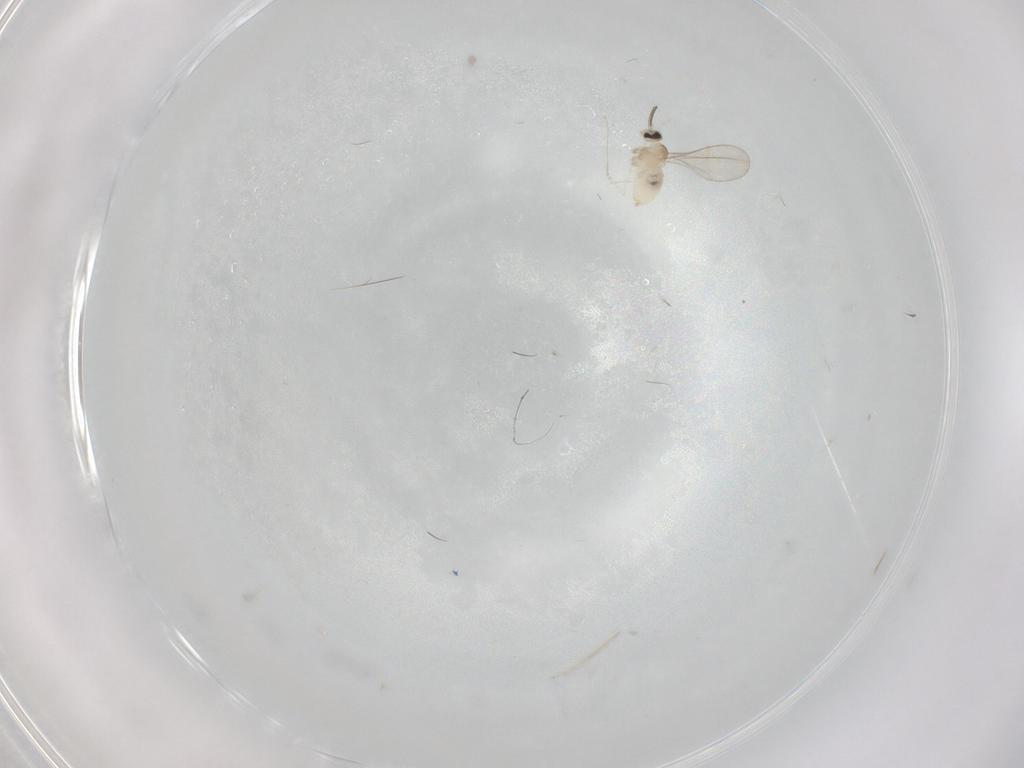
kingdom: Animalia
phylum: Arthropoda
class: Insecta
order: Diptera
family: Cecidomyiidae
